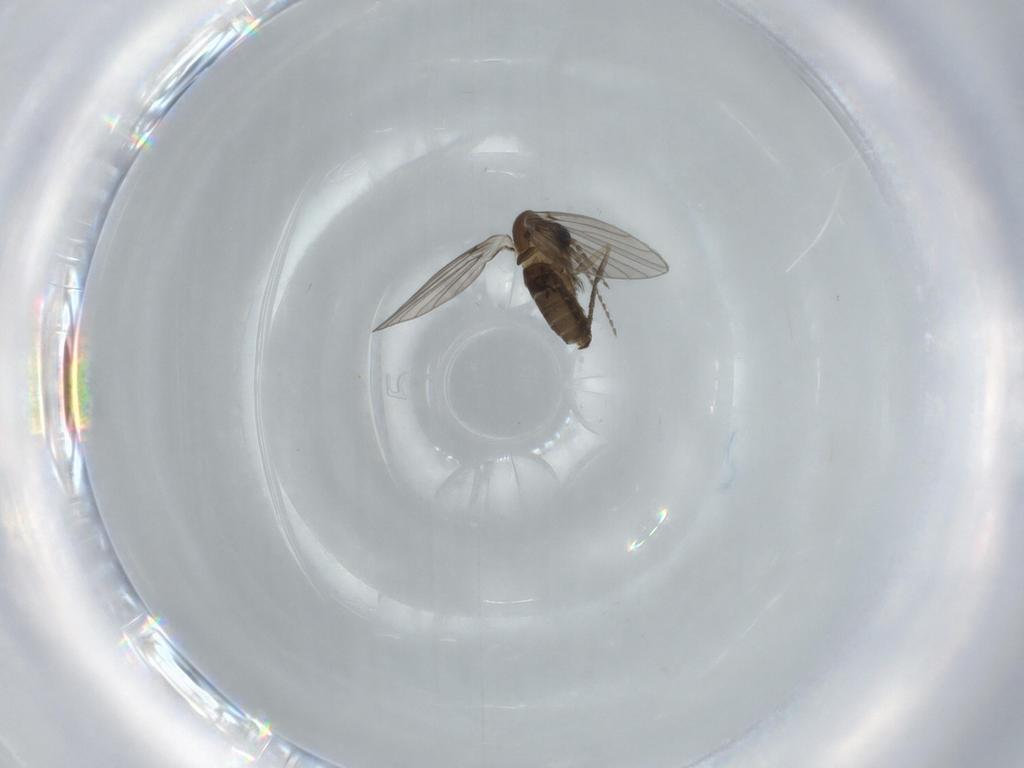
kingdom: Animalia
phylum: Arthropoda
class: Insecta
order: Diptera
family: Psychodidae
